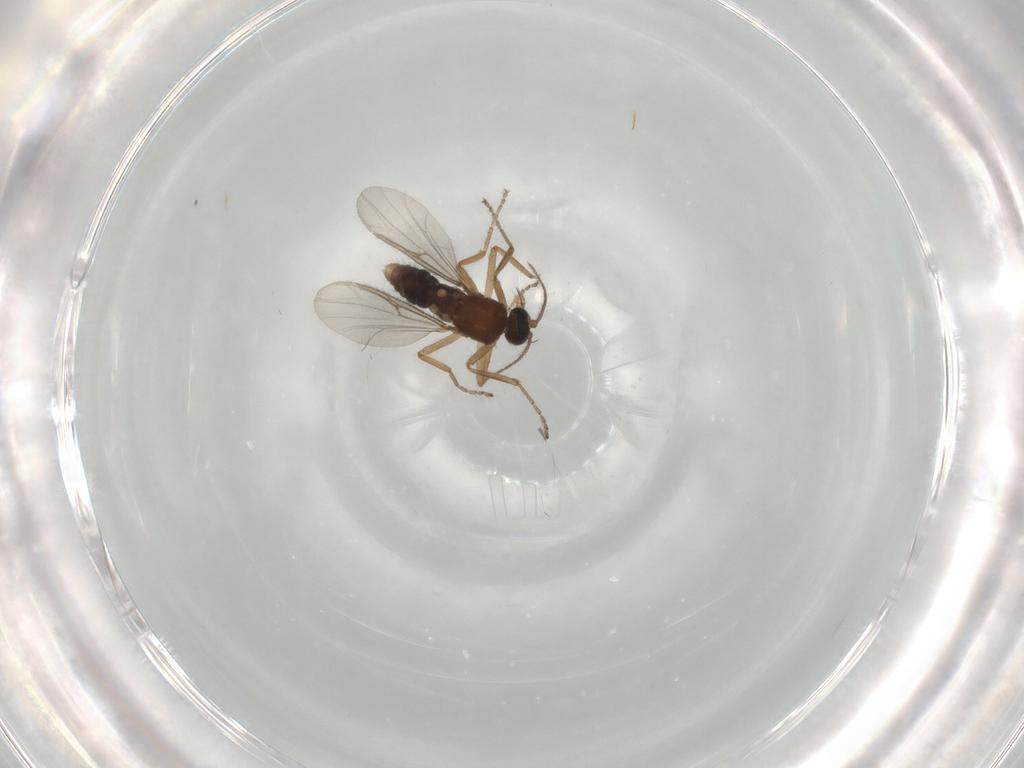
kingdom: Animalia
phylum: Arthropoda
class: Insecta
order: Diptera
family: Ceratopogonidae
